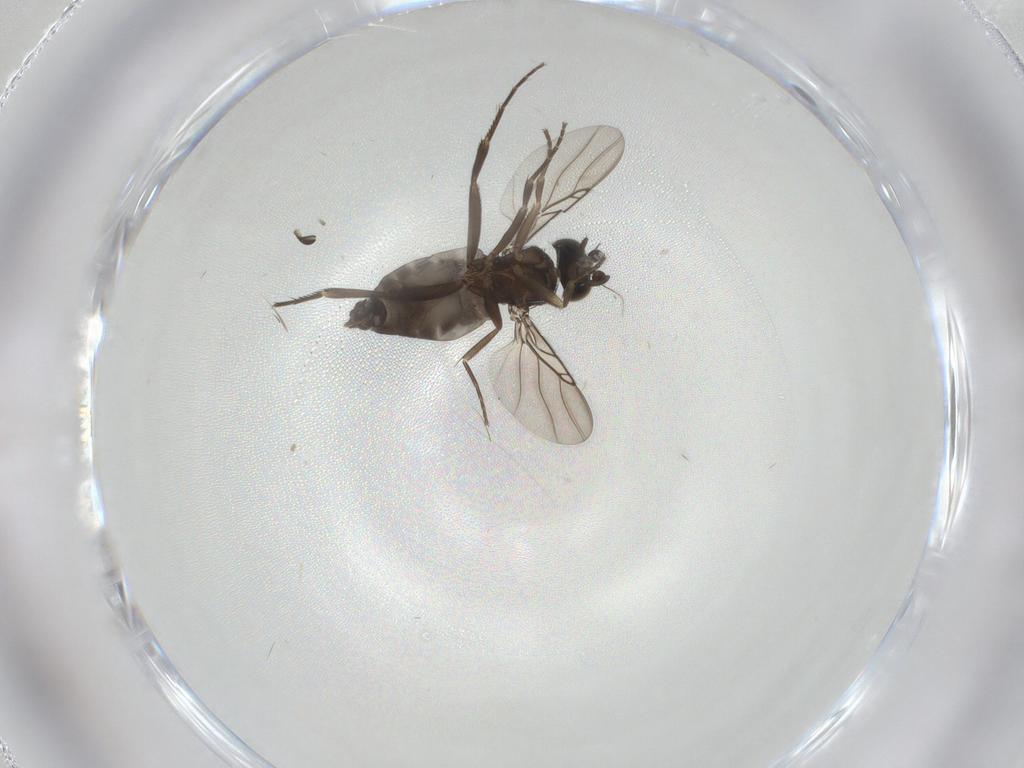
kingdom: Animalia
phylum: Arthropoda
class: Insecta
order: Diptera
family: Phoridae
